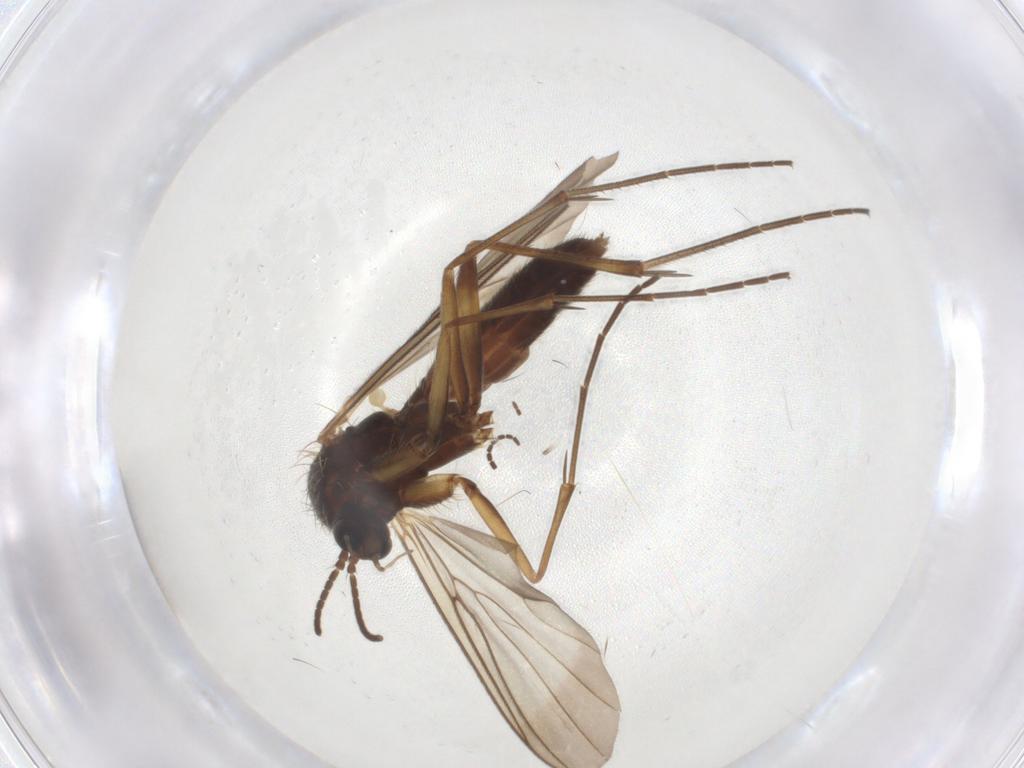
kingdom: Animalia
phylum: Arthropoda
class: Insecta
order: Diptera
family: Mycetophilidae
